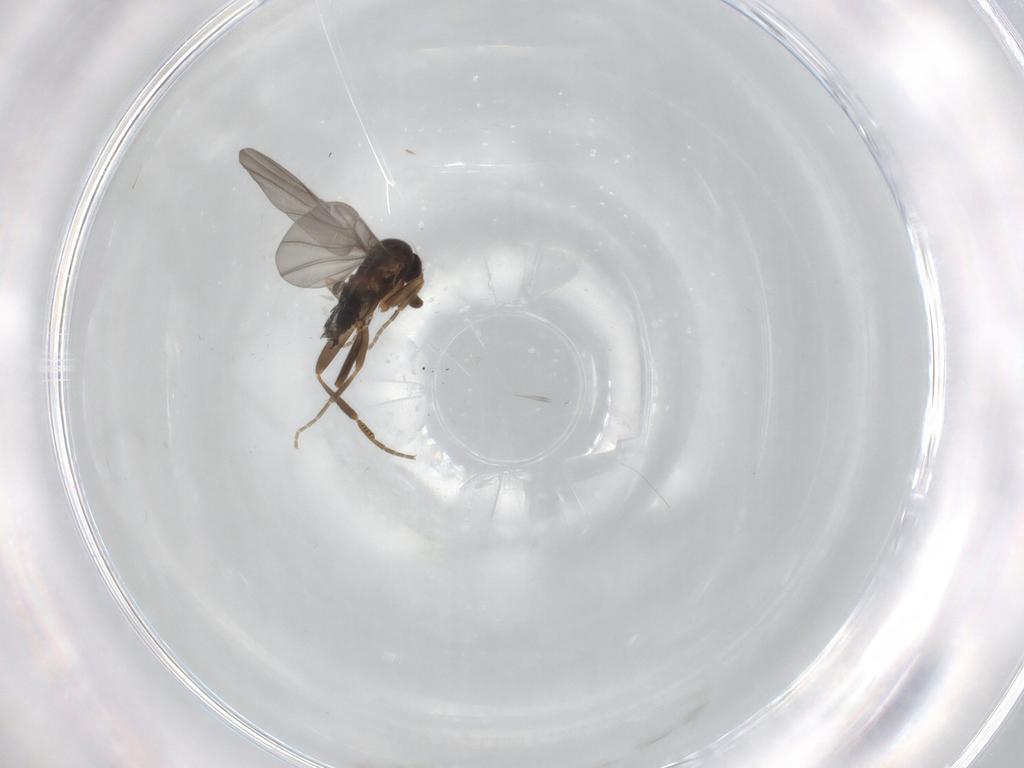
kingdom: Animalia
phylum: Arthropoda
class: Insecta
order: Diptera
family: Phoridae
